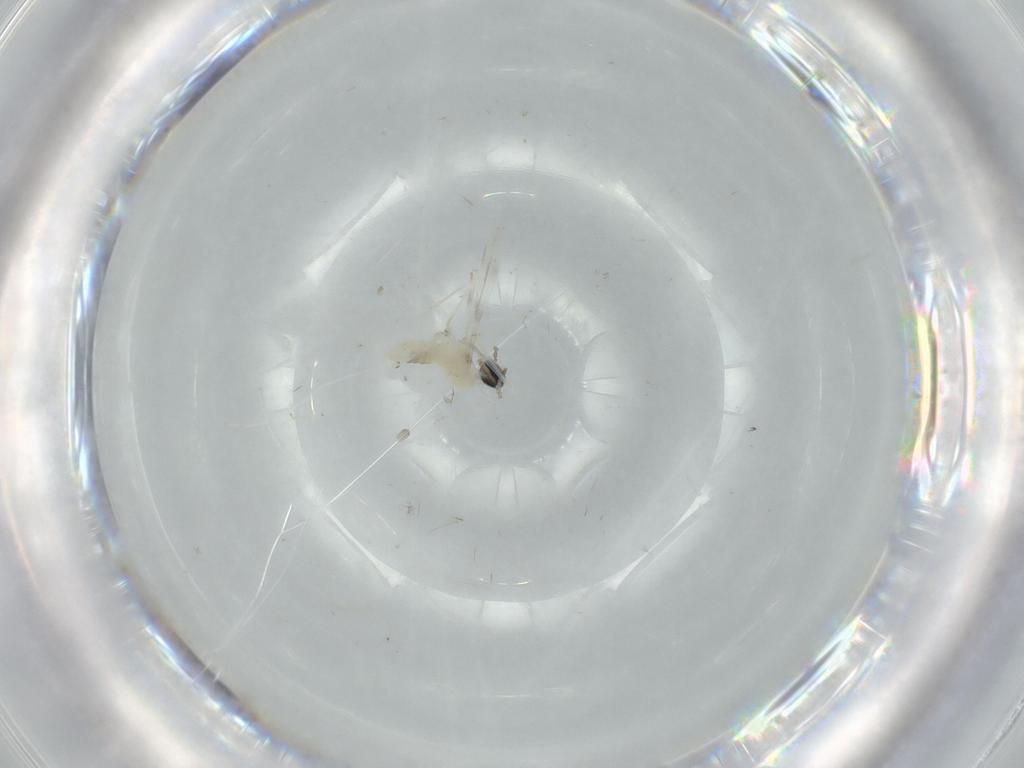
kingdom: Animalia
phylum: Arthropoda
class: Insecta
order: Diptera
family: Cecidomyiidae
